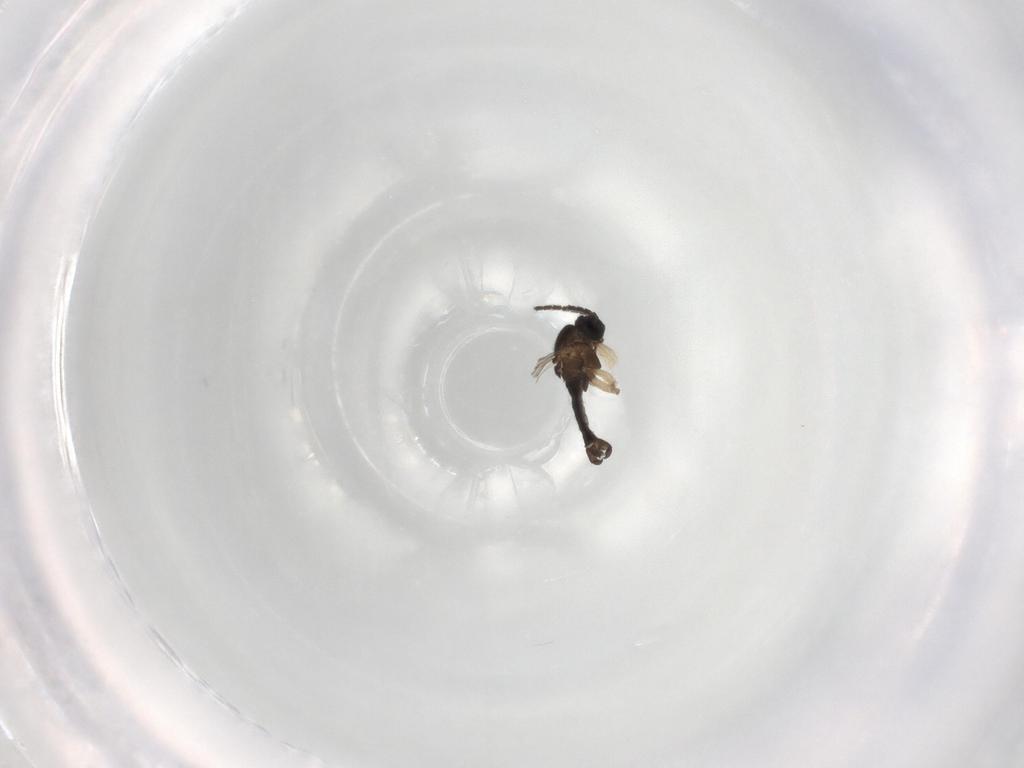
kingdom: Animalia
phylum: Arthropoda
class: Insecta
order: Diptera
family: Sciaridae
